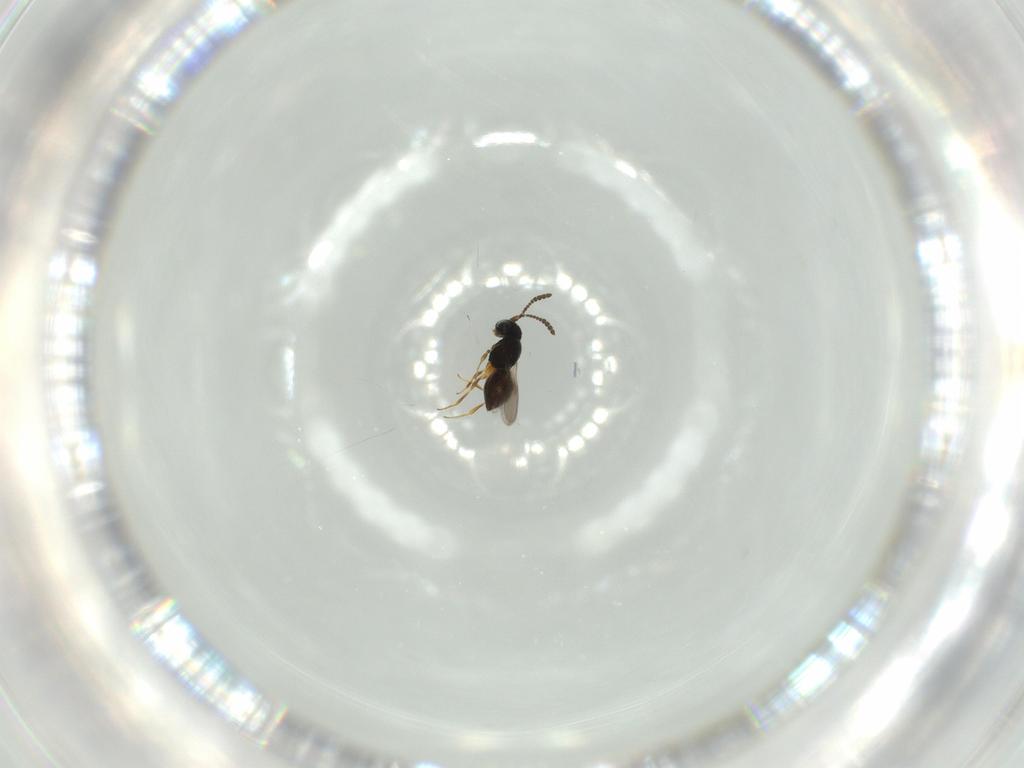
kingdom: Animalia
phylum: Arthropoda
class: Insecta
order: Hymenoptera
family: Scelionidae
